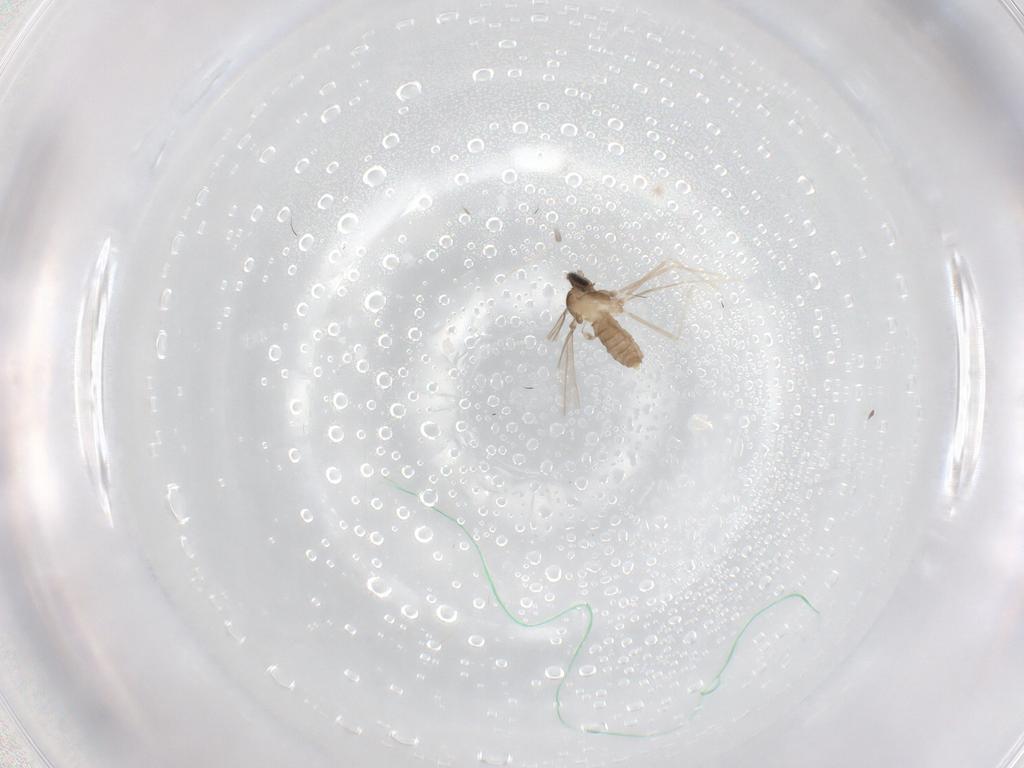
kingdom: Animalia
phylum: Arthropoda
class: Insecta
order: Diptera
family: Cecidomyiidae
